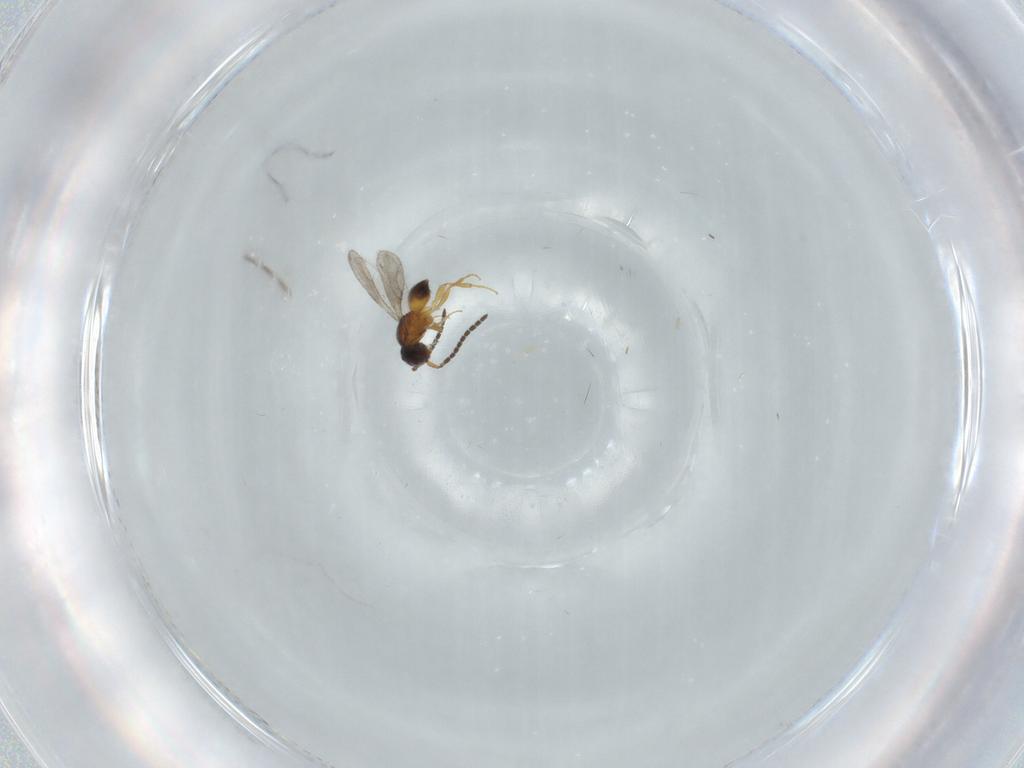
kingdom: Animalia
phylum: Arthropoda
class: Insecta
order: Hymenoptera
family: Ceraphronidae
